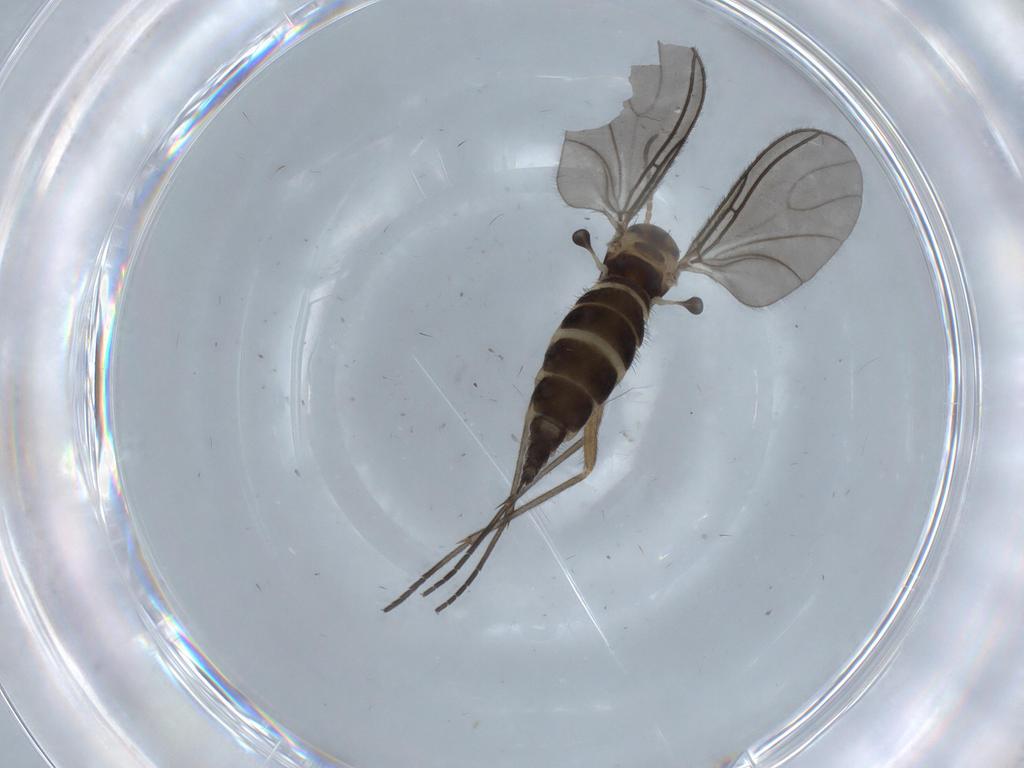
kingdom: Animalia
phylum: Arthropoda
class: Insecta
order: Diptera
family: Sciaridae
